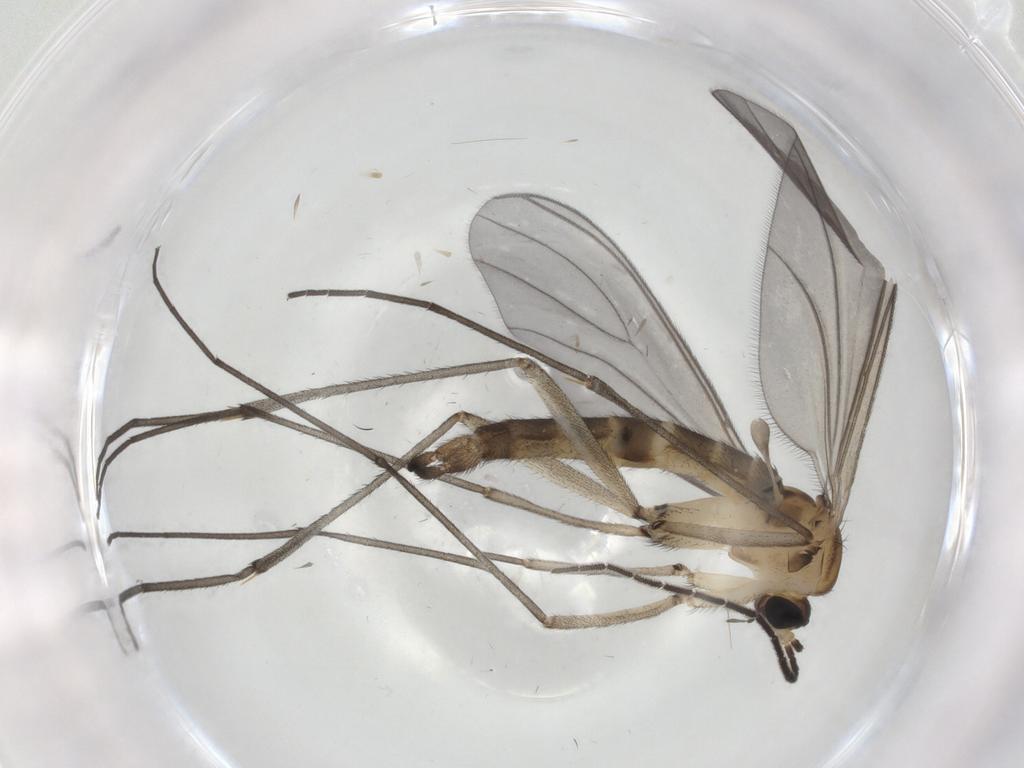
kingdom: Animalia
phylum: Arthropoda
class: Insecta
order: Diptera
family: Sciaridae
